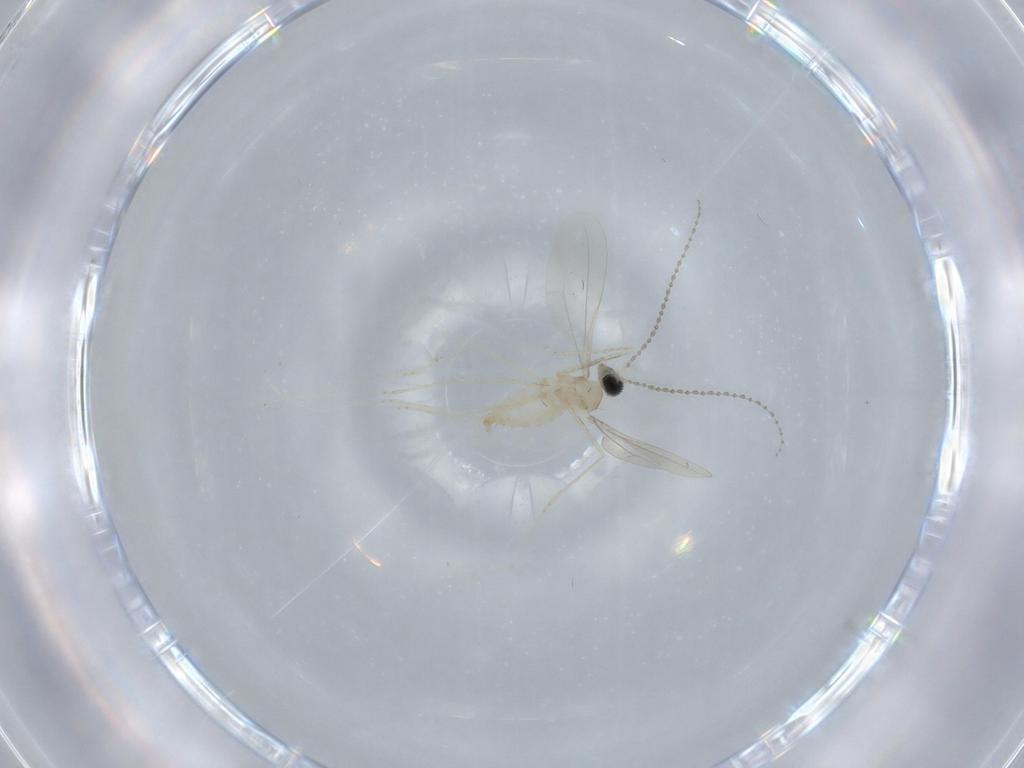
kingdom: Animalia
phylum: Arthropoda
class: Insecta
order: Diptera
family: Cecidomyiidae
